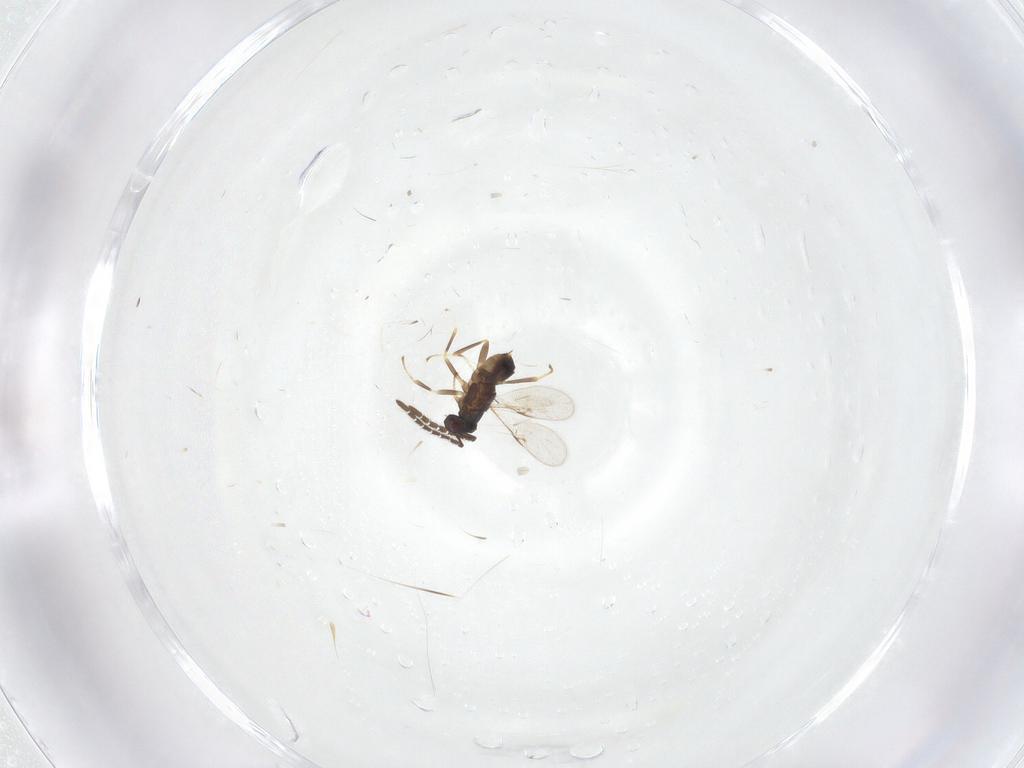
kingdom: Animalia
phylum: Arthropoda
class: Insecta
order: Hymenoptera
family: Encyrtidae
